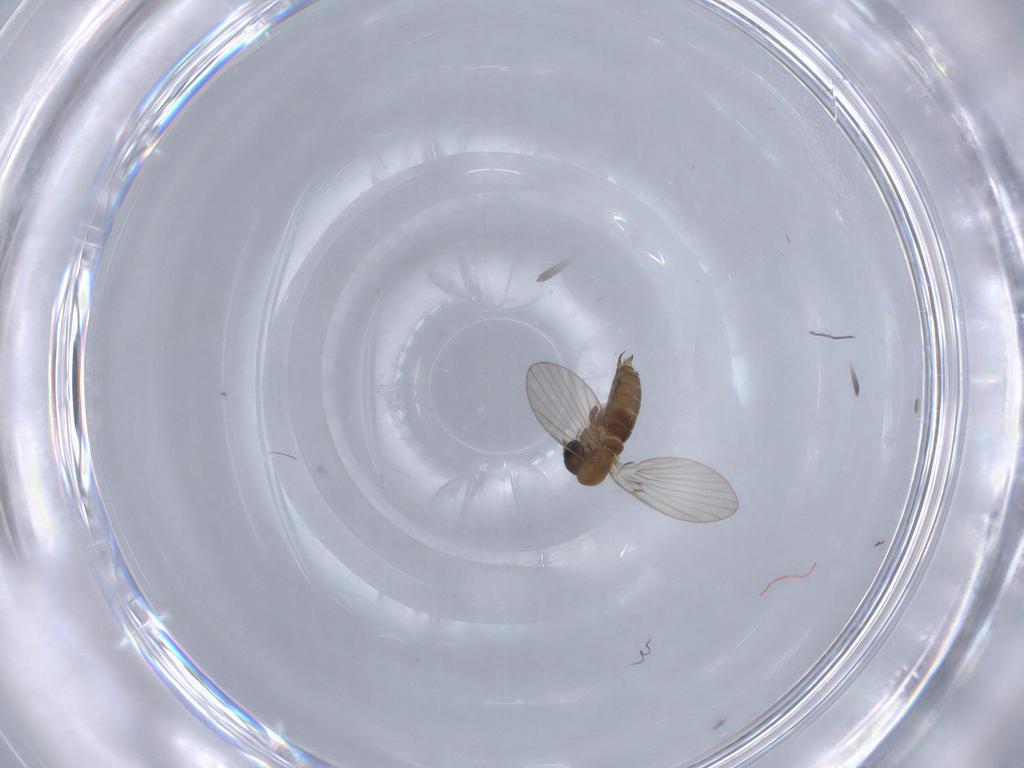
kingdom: Animalia
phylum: Arthropoda
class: Insecta
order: Diptera
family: Psychodidae
